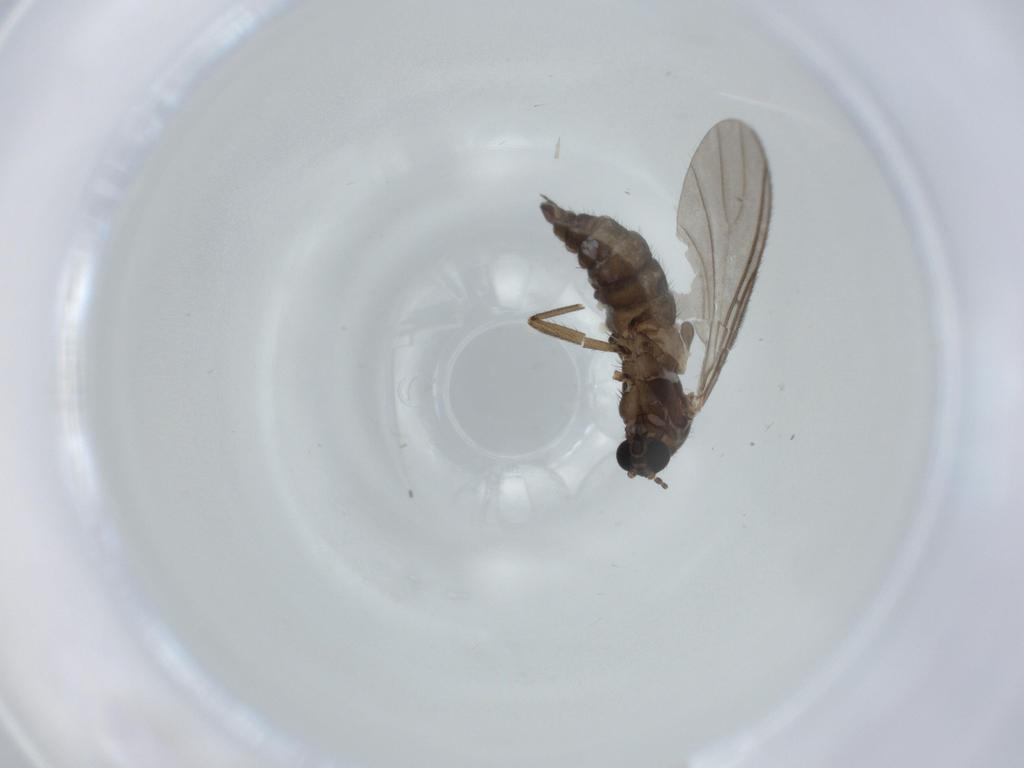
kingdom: Animalia
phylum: Arthropoda
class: Insecta
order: Diptera
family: Sciaridae
